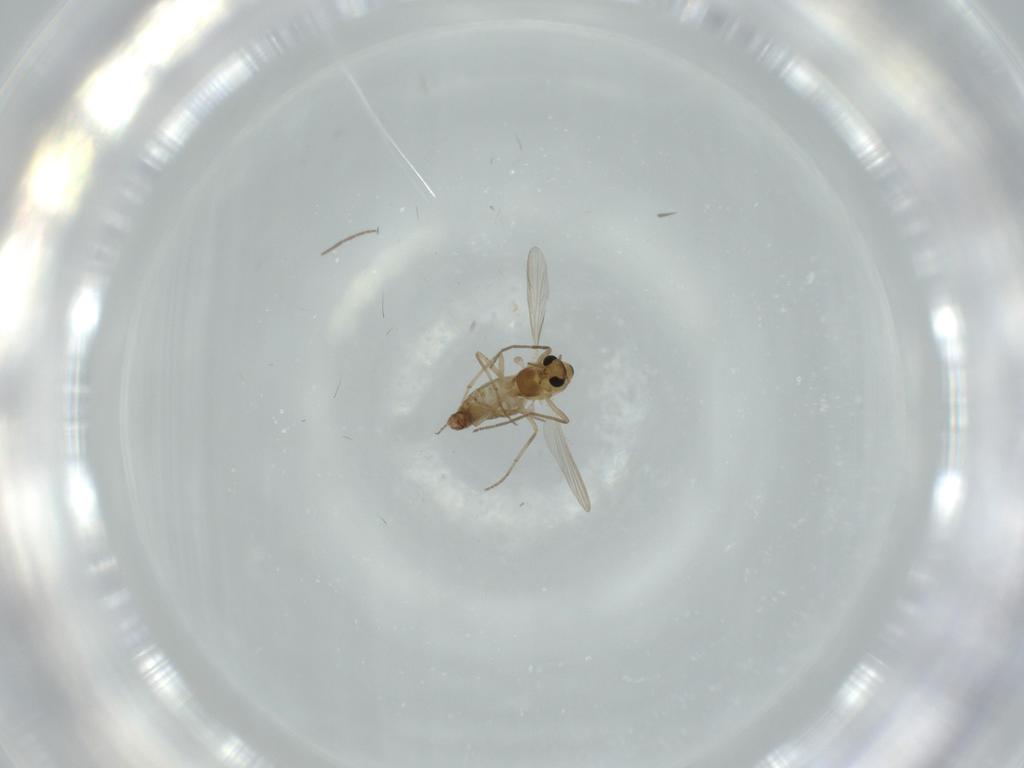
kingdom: Animalia
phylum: Arthropoda
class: Insecta
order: Diptera
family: Chironomidae
